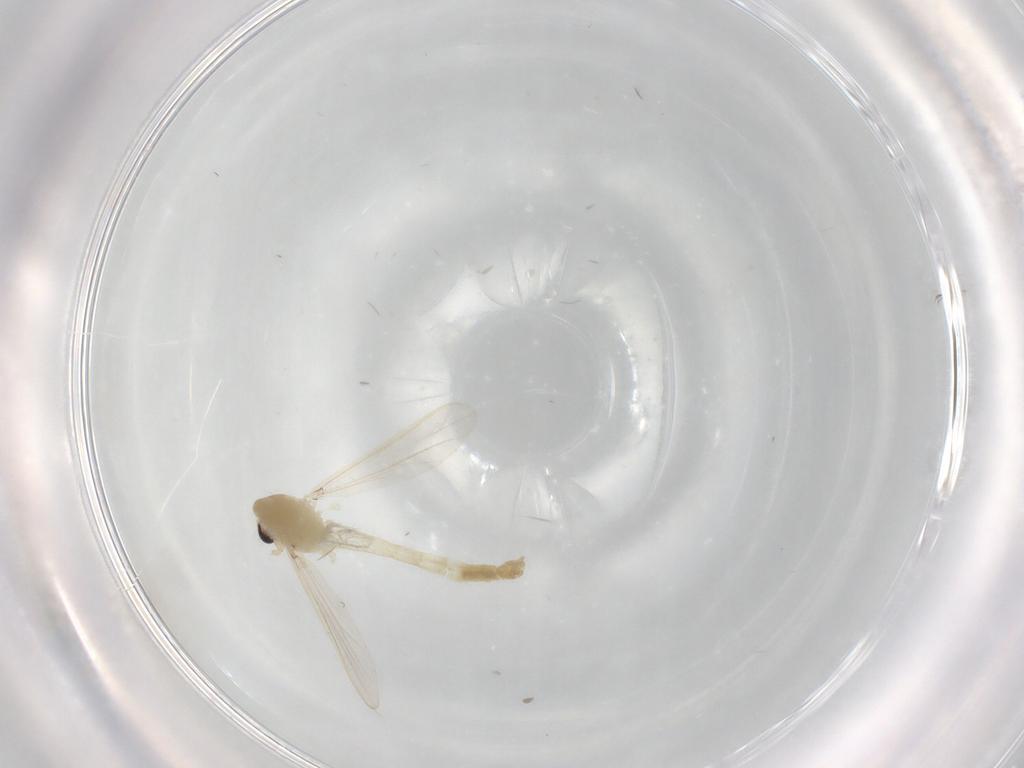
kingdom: Animalia
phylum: Arthropoda
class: Insecta
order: Diptera
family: Chironomidae
